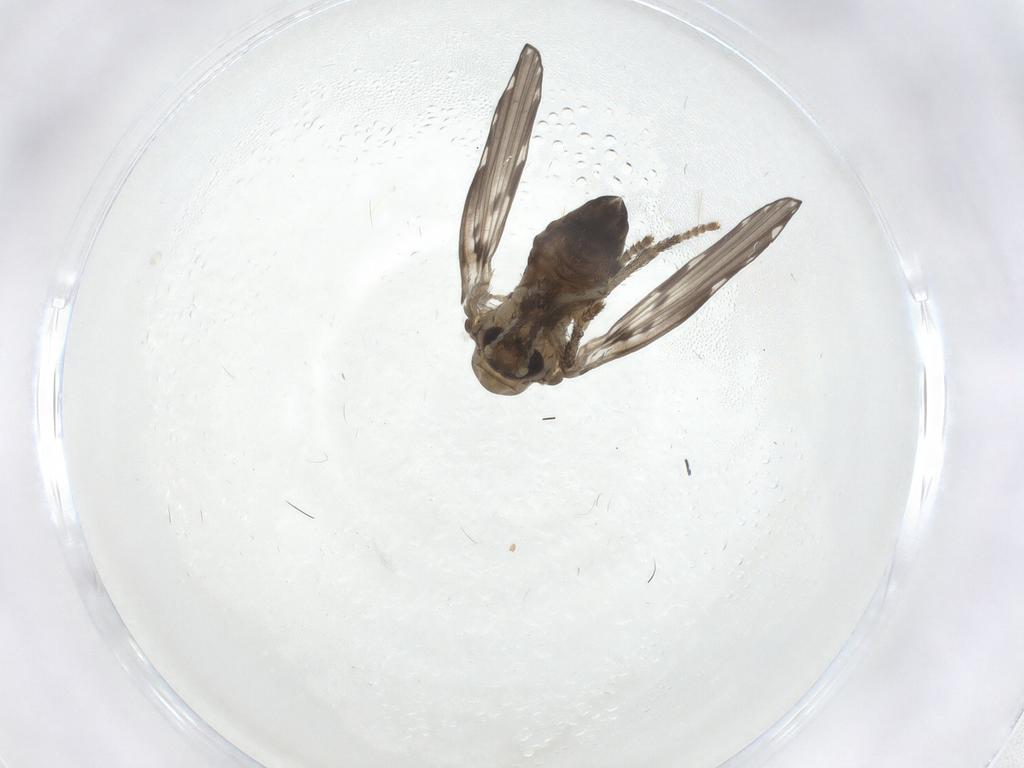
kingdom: Animalia
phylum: Arthropoda
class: Insecta
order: Diptera
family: Psychodidae
